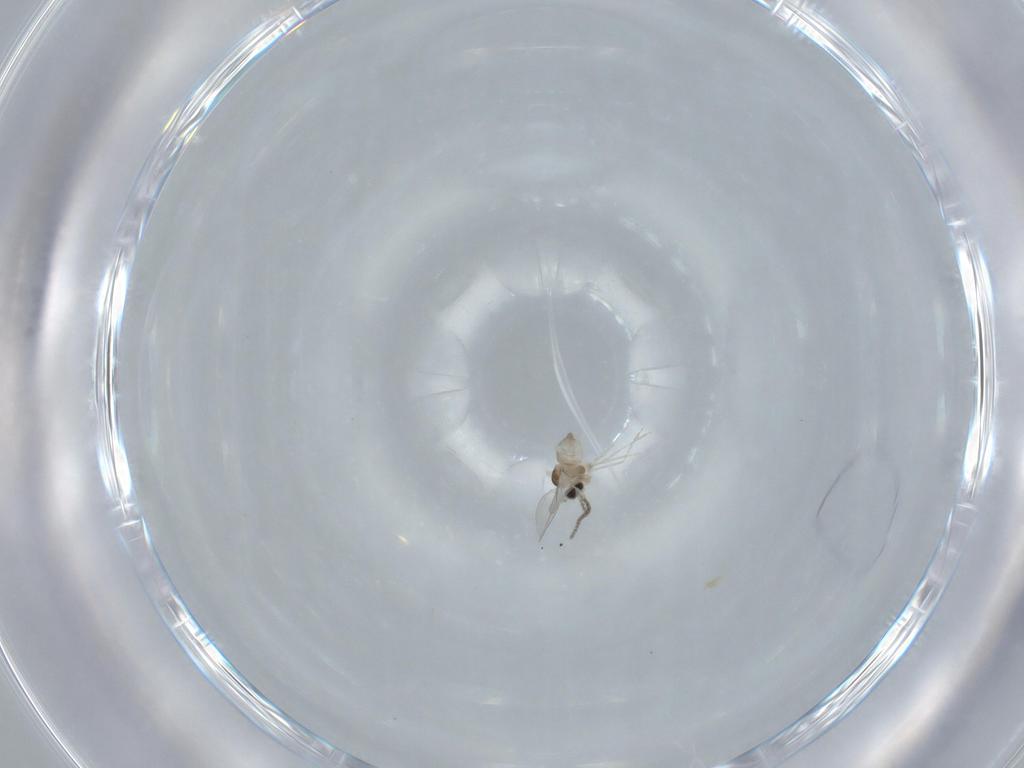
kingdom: Animalia
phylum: Arthropoda
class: Insecta
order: Diptera
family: Cecidomyiidae
